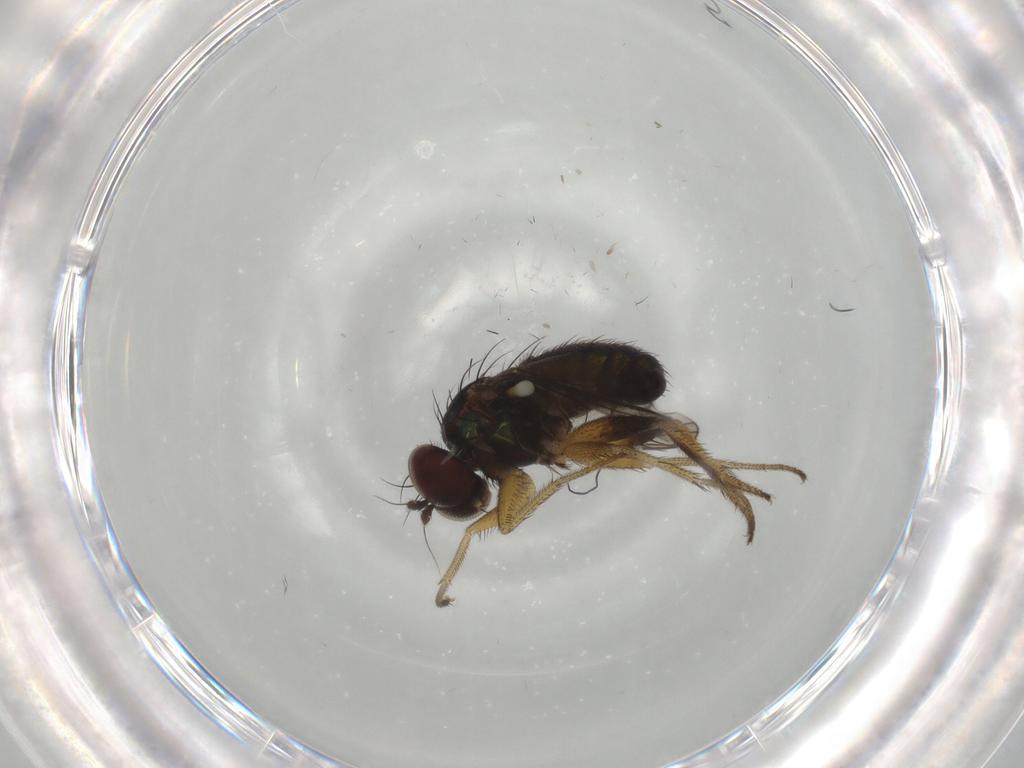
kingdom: Animalia
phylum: Arthropoda
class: Insecta
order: Diptera
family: Dolichopodidae
